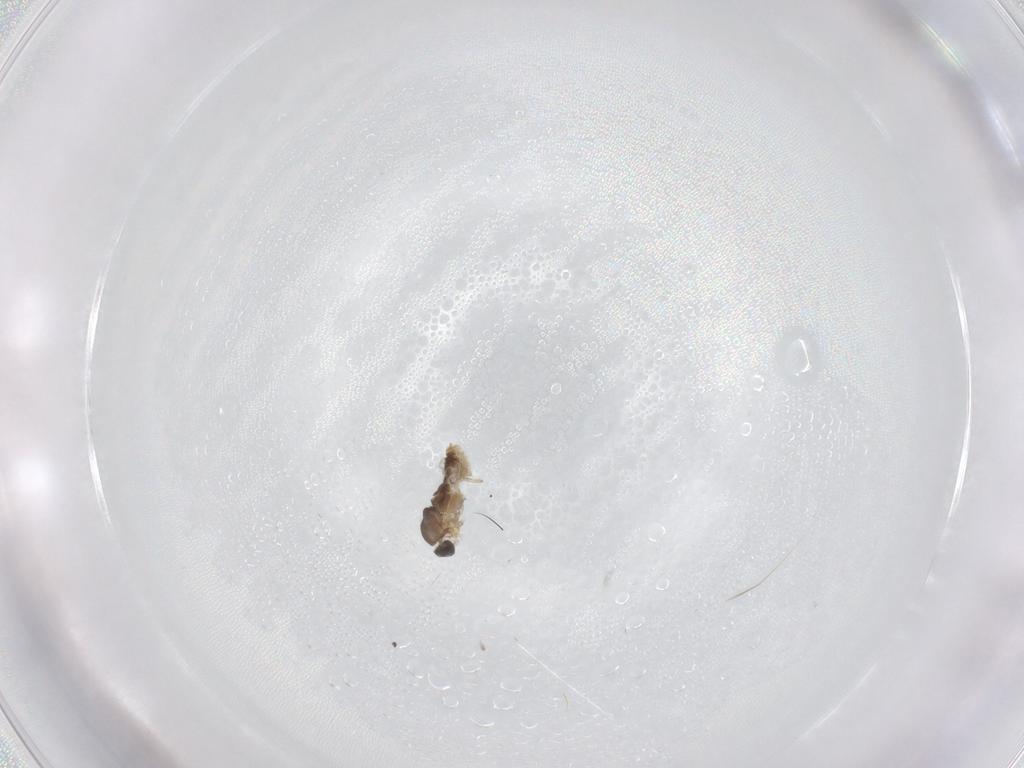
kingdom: Animalia
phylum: Arthropoda
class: Insecta
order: Diptera
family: Ceratopogonidae
